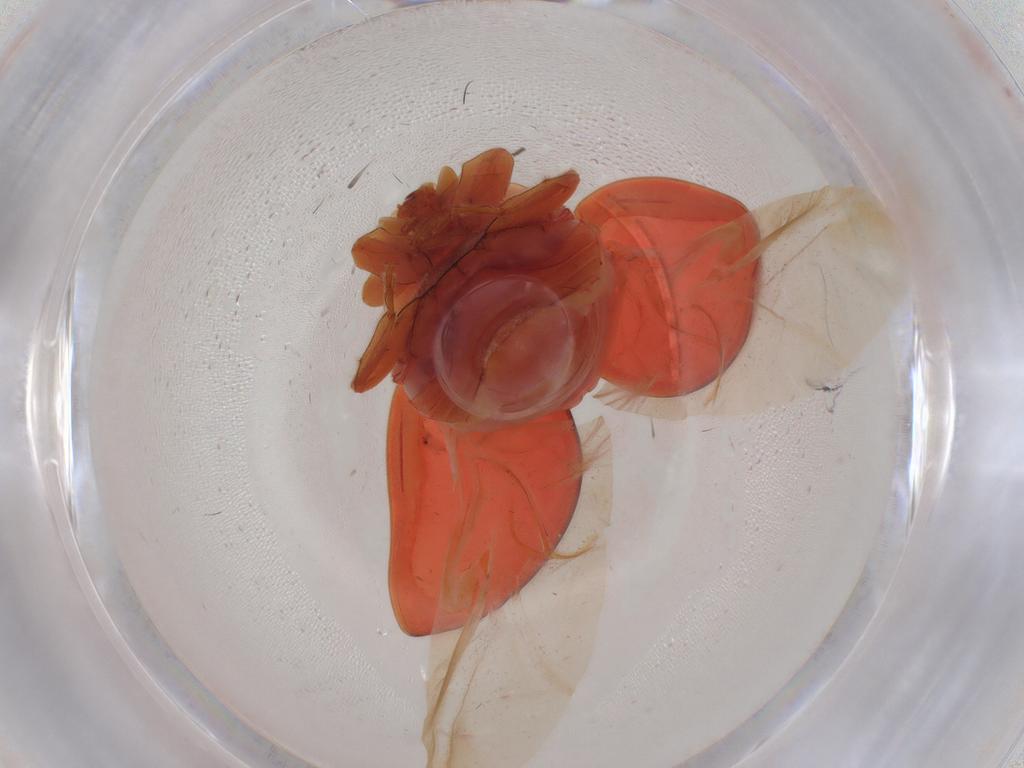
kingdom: Animalia
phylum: Arthropoda
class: Insecta
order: Coleoptera
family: Coccinellidae
